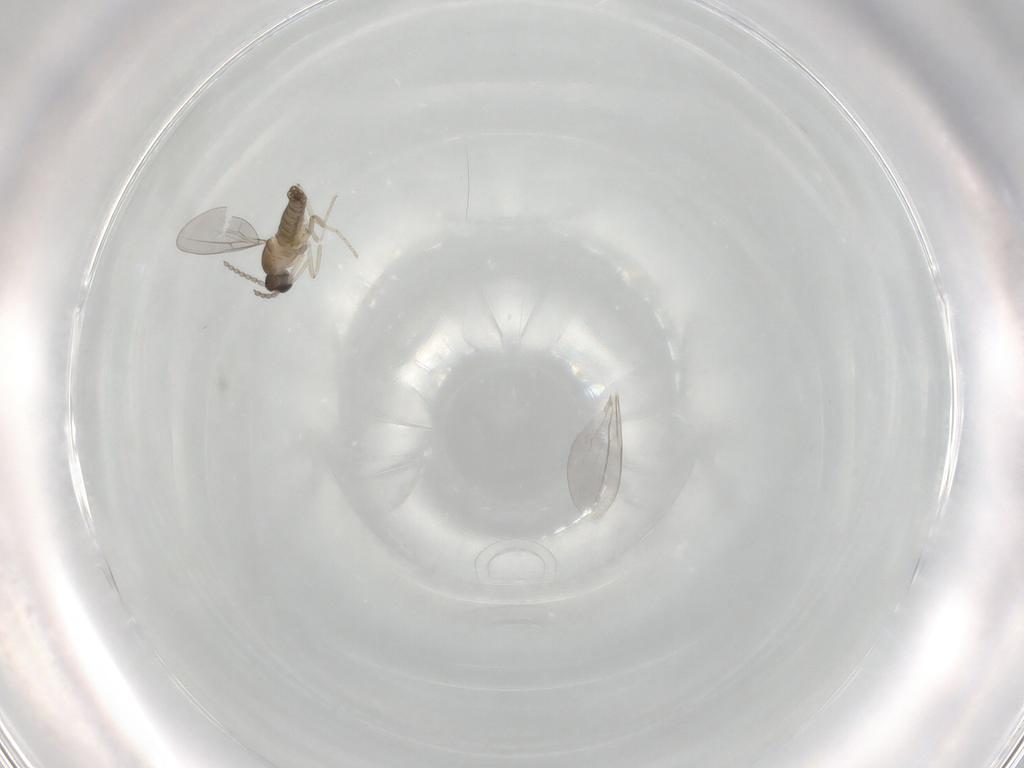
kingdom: Animalia
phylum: Arthropoda
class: Insecta
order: Diptera
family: Cecidomyiidae
